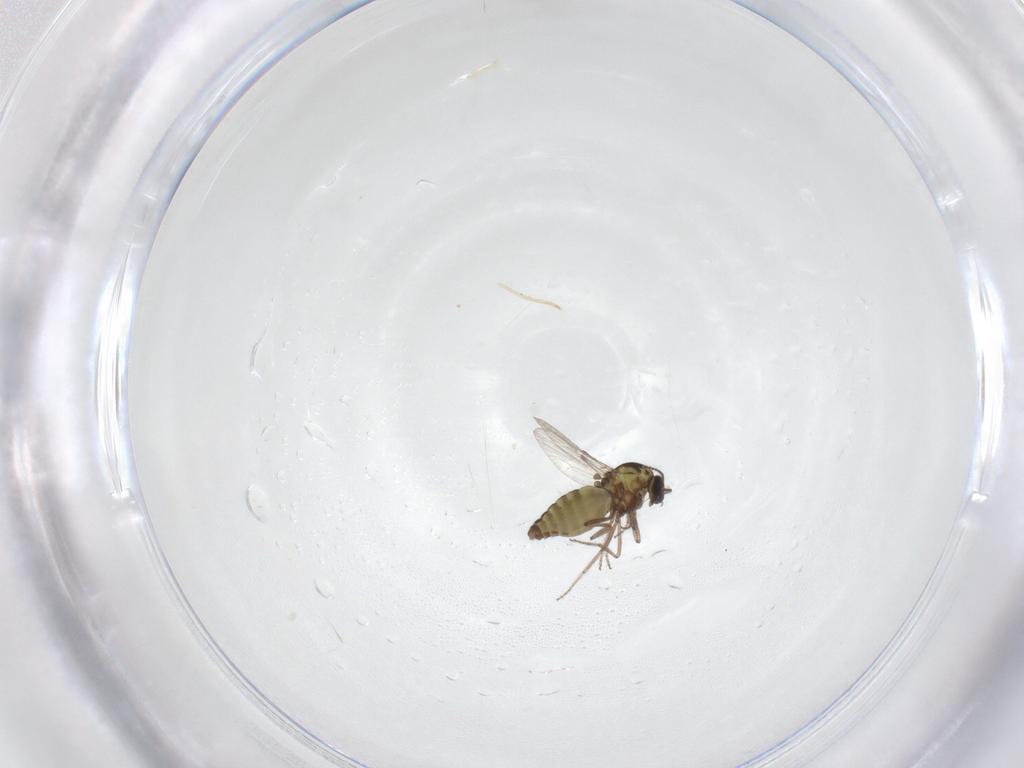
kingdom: Animalia
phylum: Arthropoda
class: Insecta
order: Diptera
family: Ceratopogonidae
